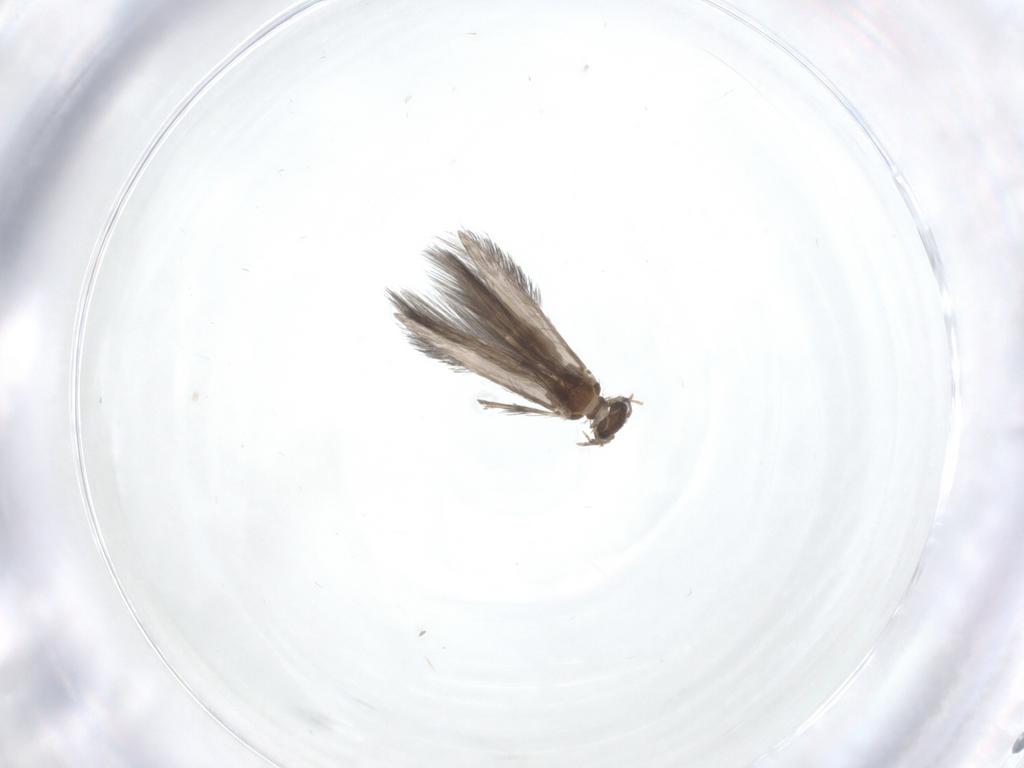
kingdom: Animalia
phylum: Arthropoda
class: Insecta
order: Trichoptera
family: Hydroptilidae
